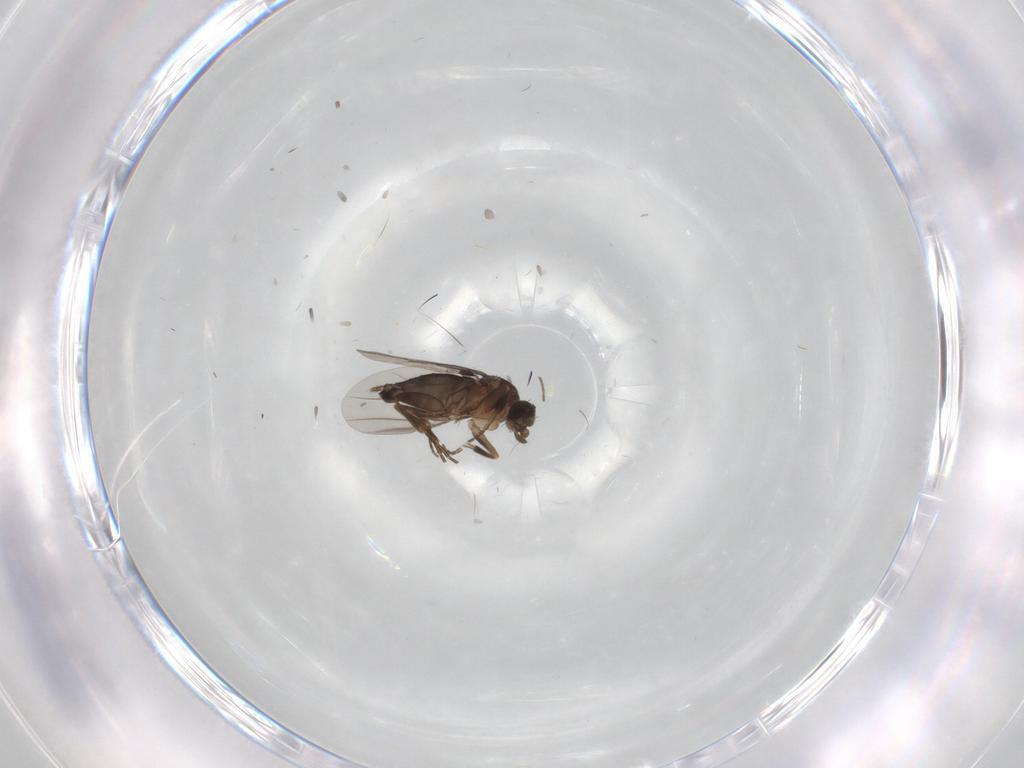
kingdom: Animalia
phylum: Arthropoda
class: Insecta
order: Diptera
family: Phoridae
